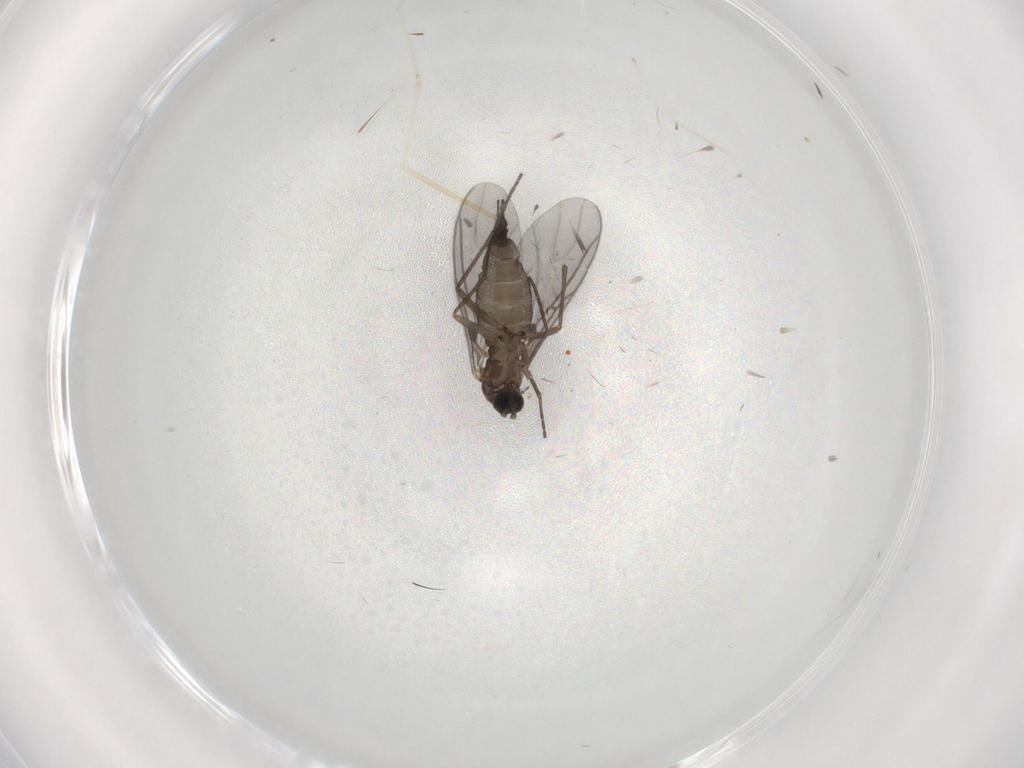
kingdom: Animalia
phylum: Arthropoda
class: Insecta
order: Diptera
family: Sciaridae
